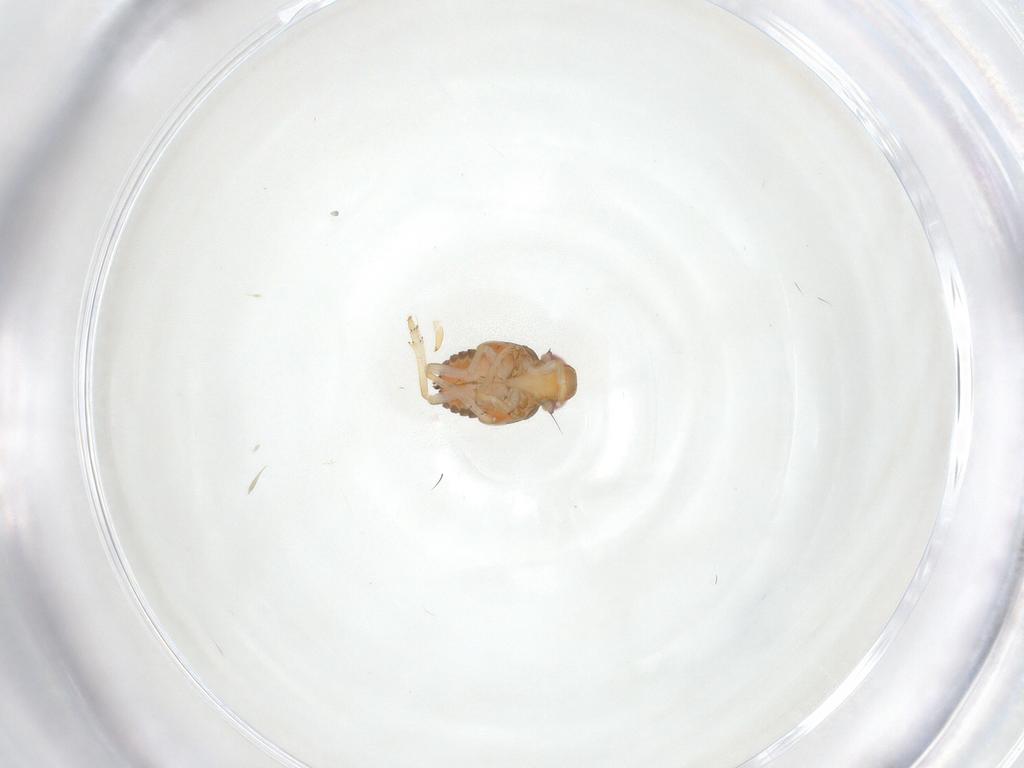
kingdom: Animalia
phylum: Arthropoda
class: Insecta
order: Hemiptera
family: Issidae
